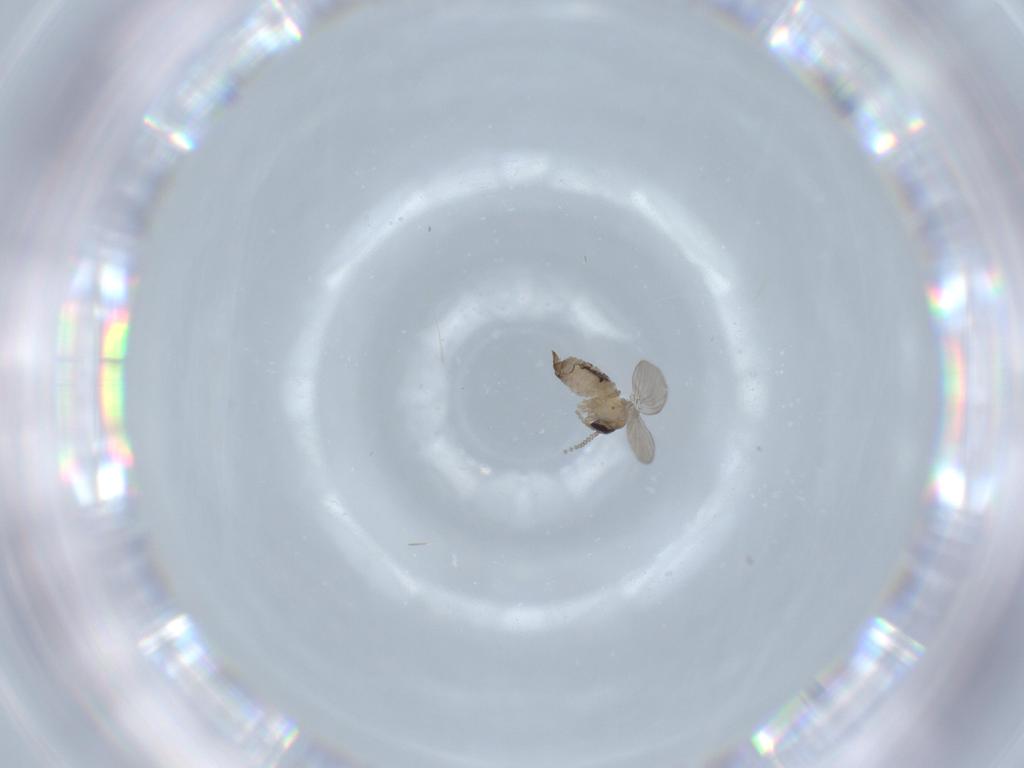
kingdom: Animalia
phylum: Arthropoda
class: Insecta
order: Diptera
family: Psychodidae
